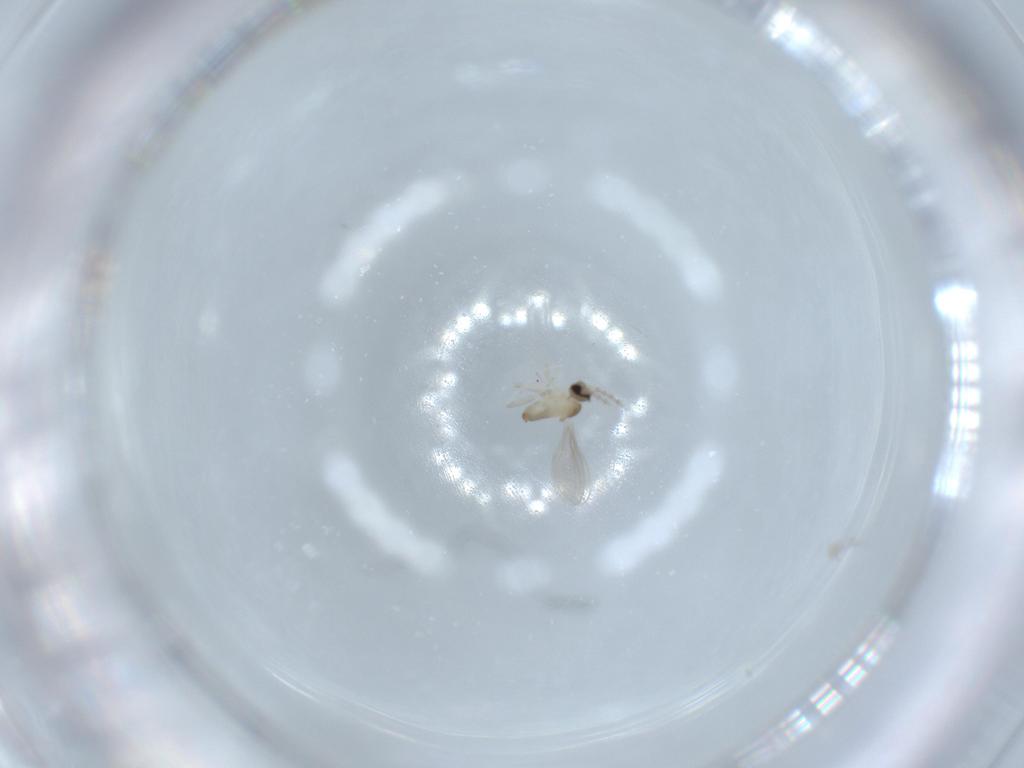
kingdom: Animalia
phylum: Arthropoda
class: Insecta
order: Diptera
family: Cecidomyiidae
